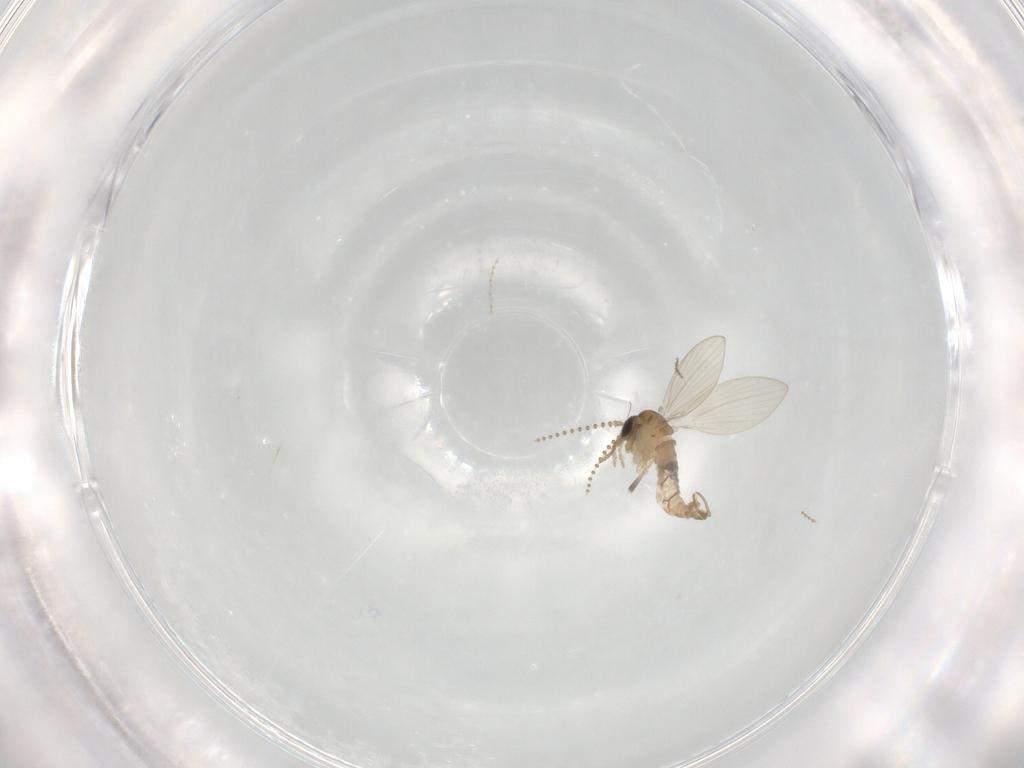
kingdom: Animalia
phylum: Arthropoda
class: Insecta
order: Diptera
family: Psychodidae
